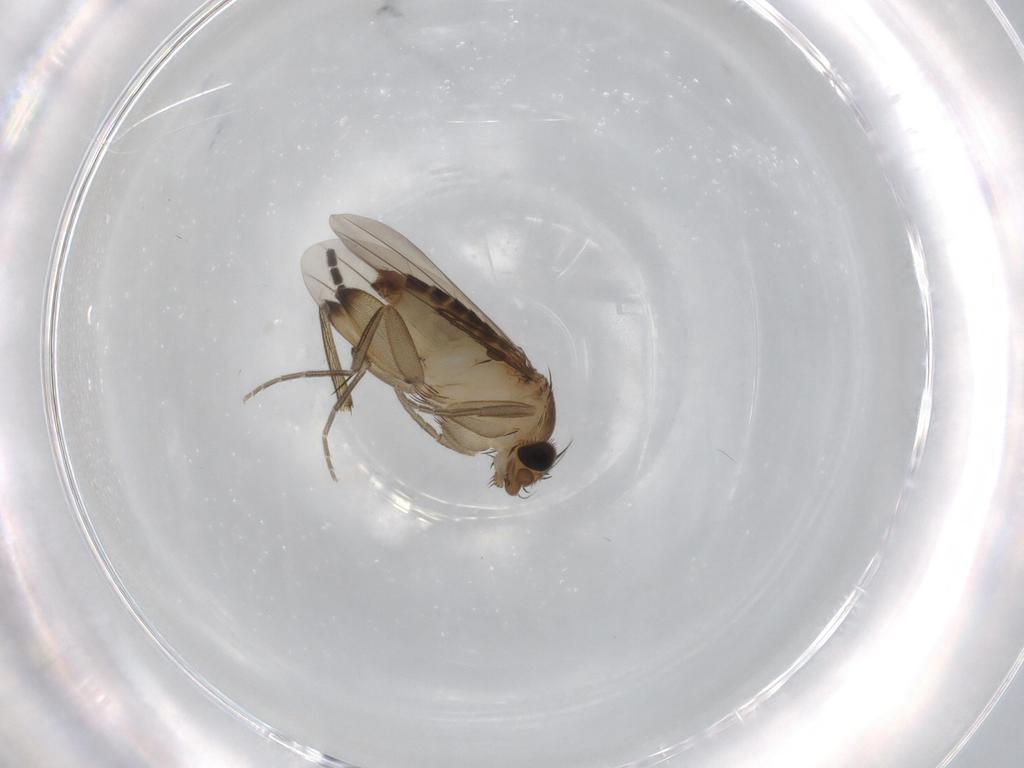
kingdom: Animalia
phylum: Arthropoda
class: Insecta
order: Diptera
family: Phoridae
